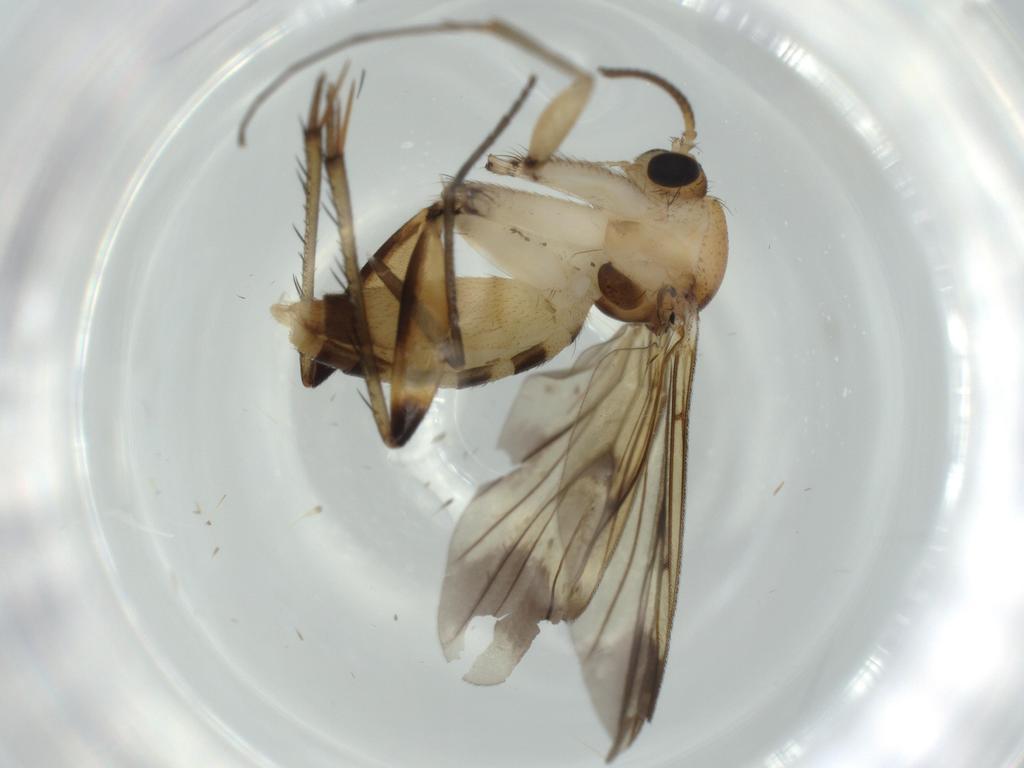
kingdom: Animalia
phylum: Arthropoda
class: Insecta
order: Diptera
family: Mycetophilidae
